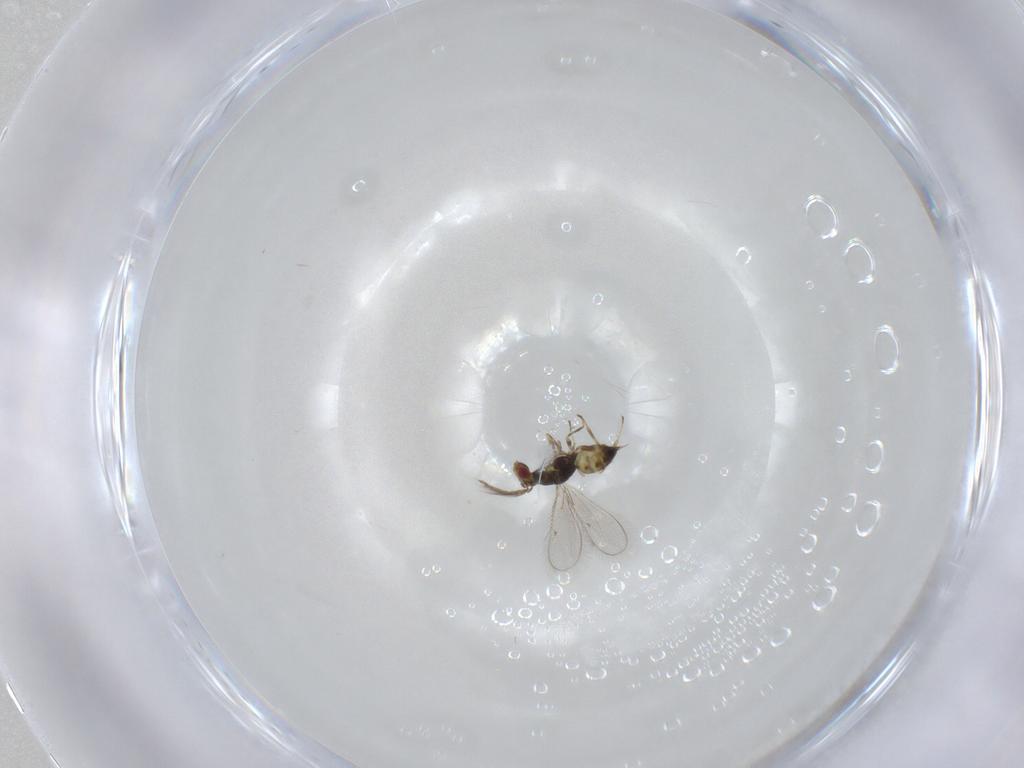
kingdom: Animalia
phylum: Arthropoda
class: Insecta
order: Hymenoptera
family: Eulophidae
